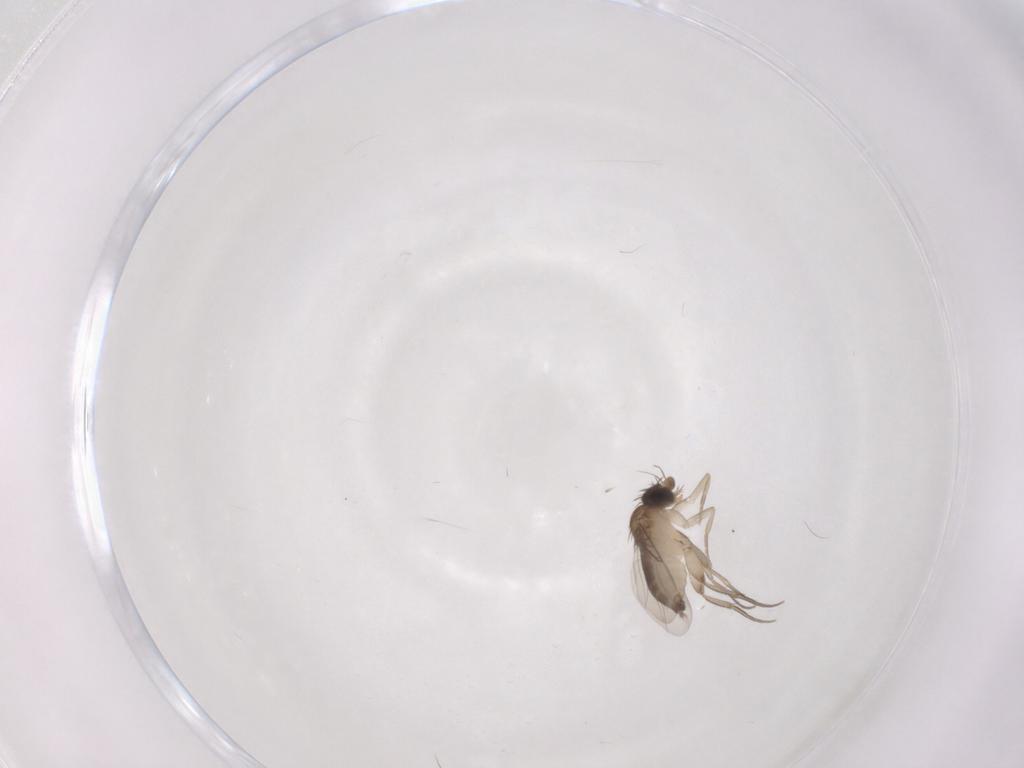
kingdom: Animalia
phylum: Arthropoda
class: Insecta
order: Diptera
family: Phoridae
